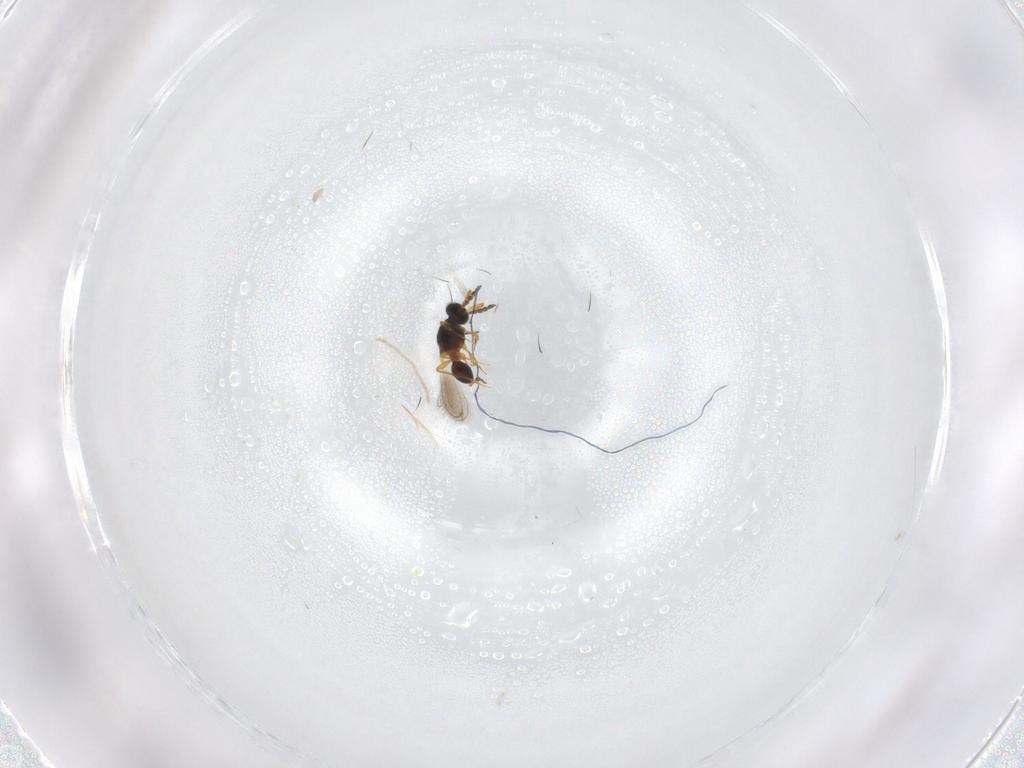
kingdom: Animalia
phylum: Arthropoda
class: Insecta
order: Hymenoptera
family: Platygastridae
